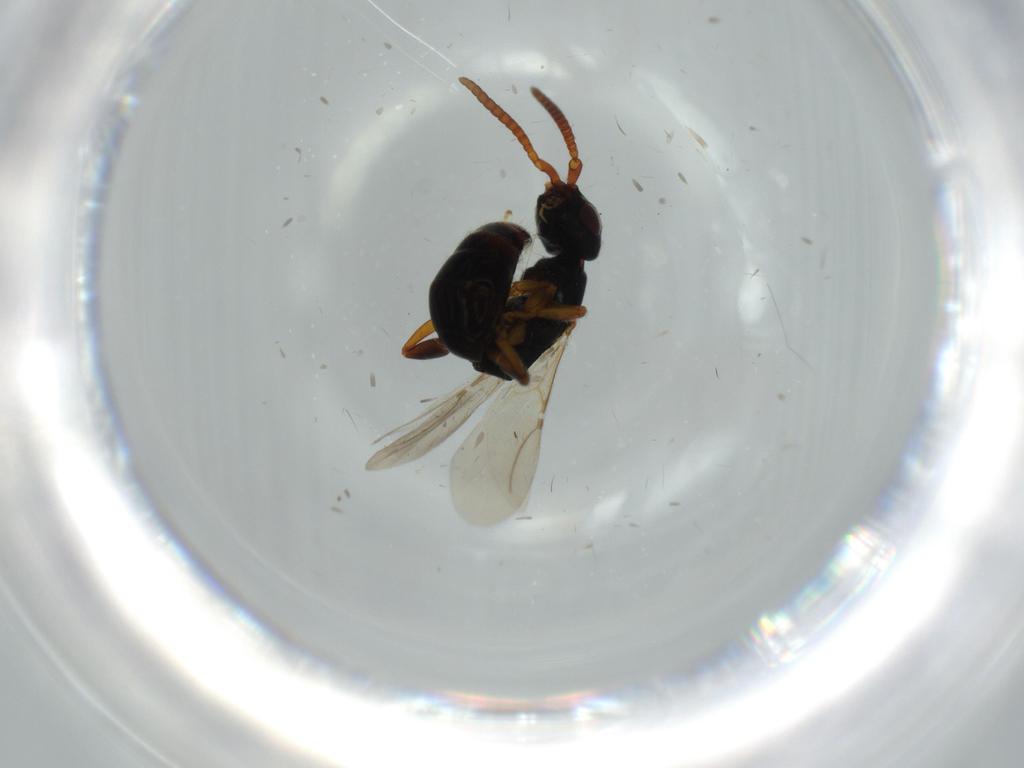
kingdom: Animalia
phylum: Arthropoda
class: Insecta
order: Hymenoptera
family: Bethylidae
